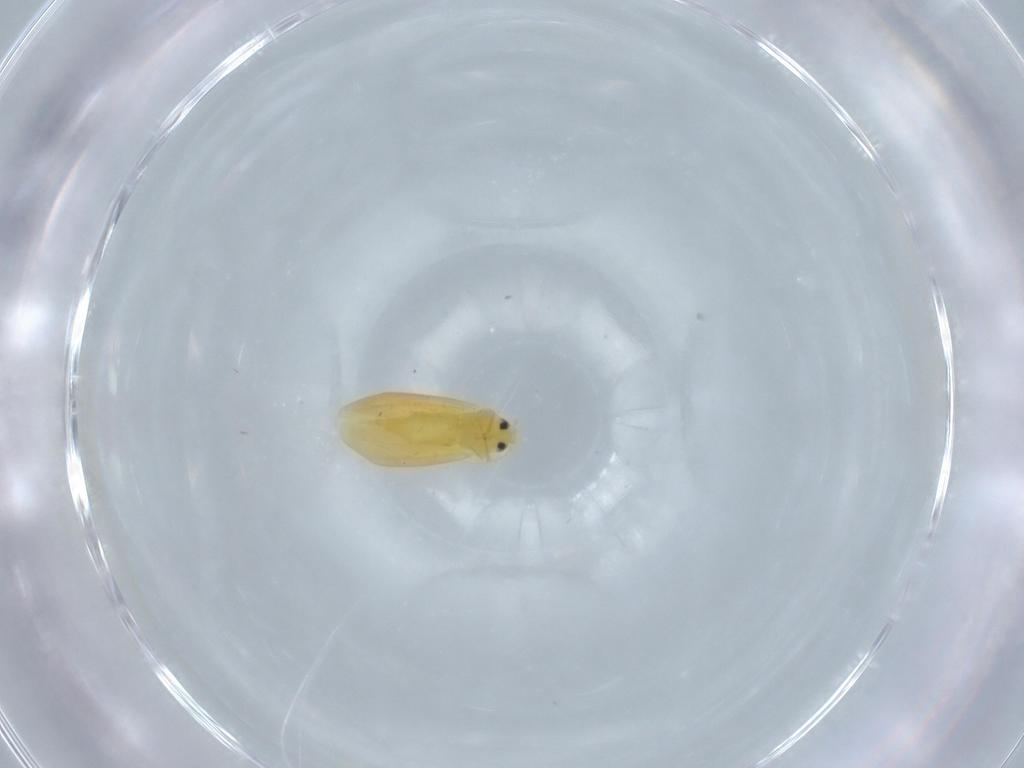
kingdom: Animalia
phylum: Arthropoda
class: Insecta
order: Hemiptera
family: Aleyrodidae
